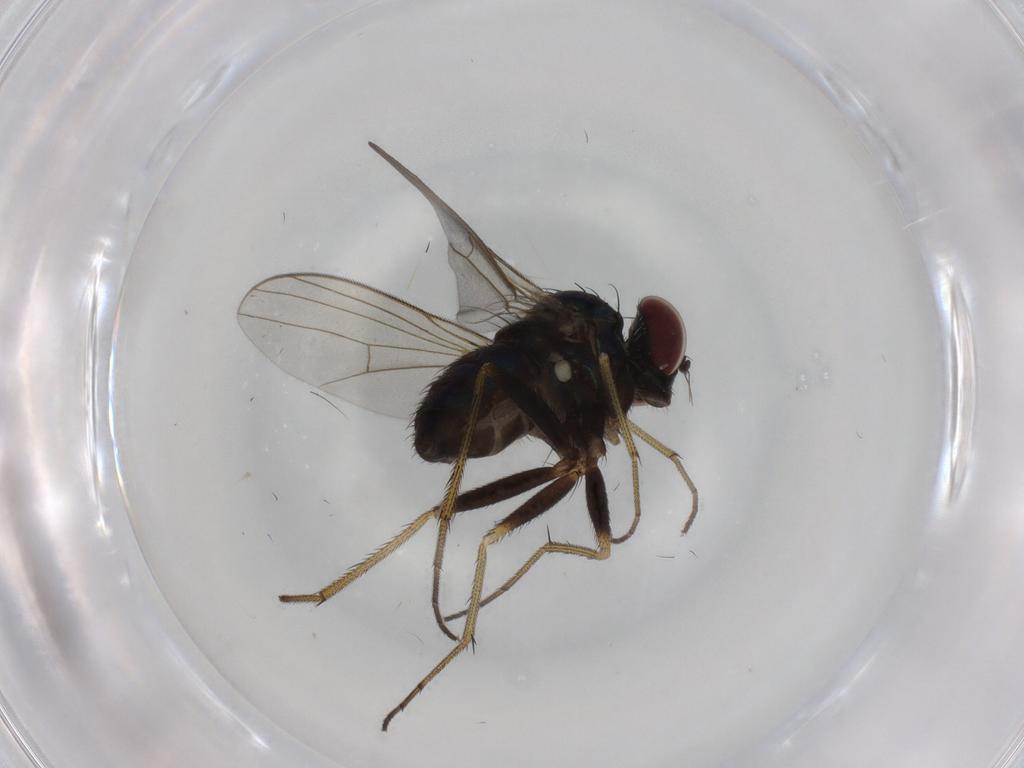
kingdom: Animalia
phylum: Arthropoda
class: Insecta
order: Diptera
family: Dolichopodidae
